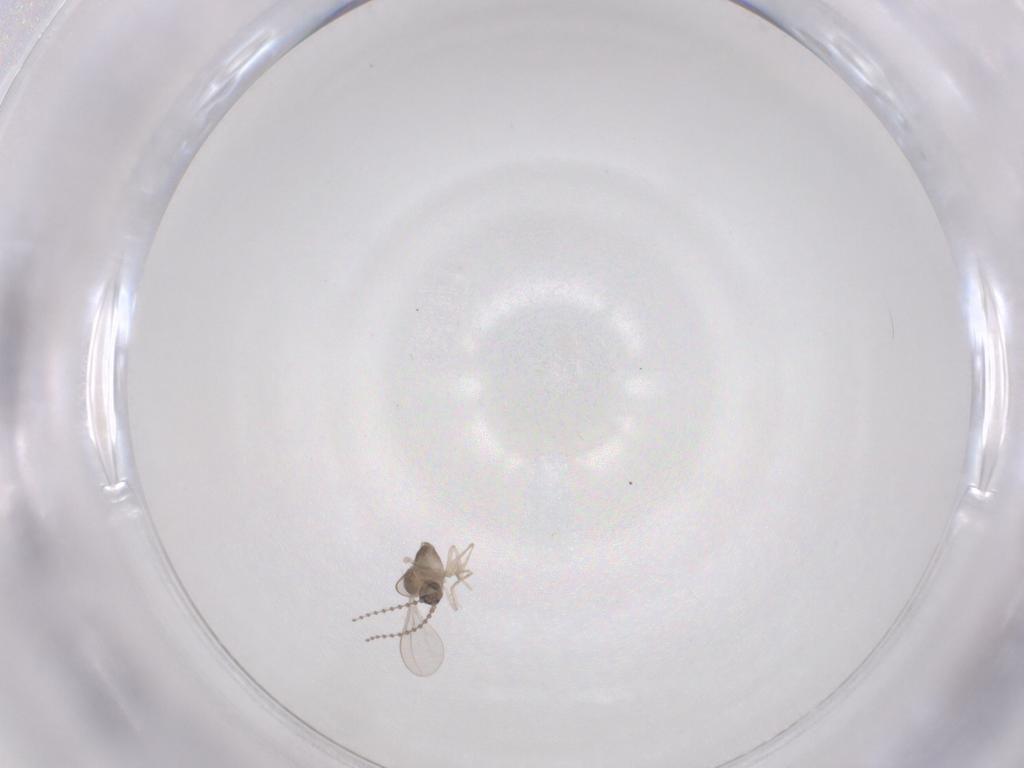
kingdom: Animalia
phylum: Arthropoda
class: Insecta
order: Diptera
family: Cecidomyiidae
